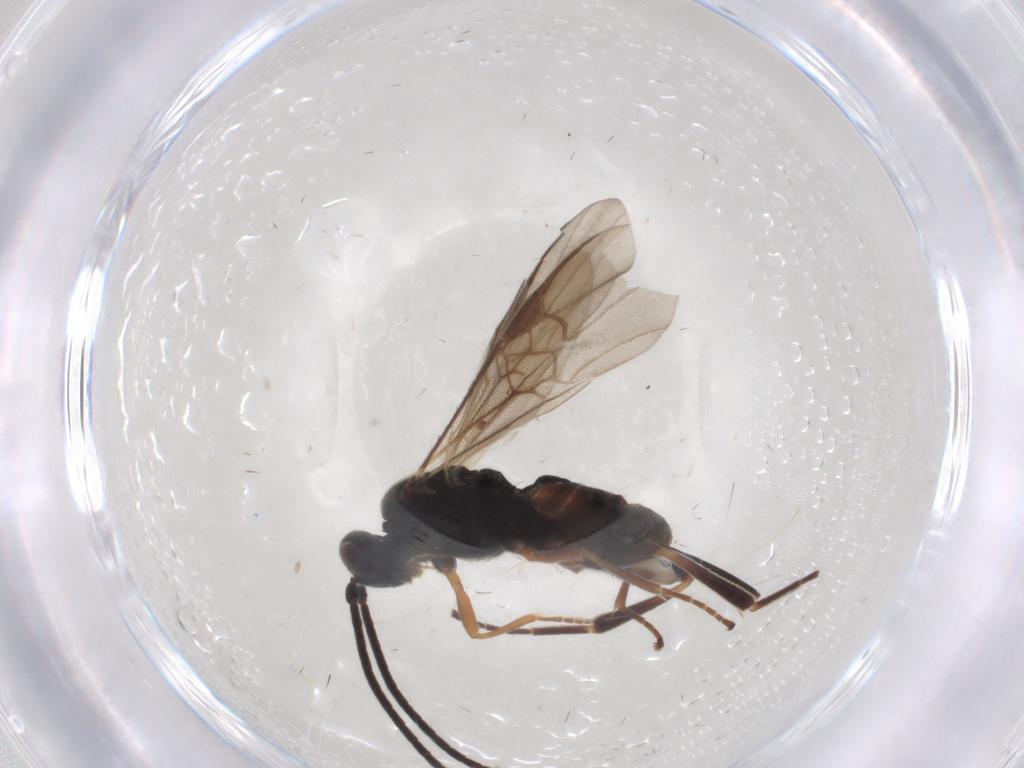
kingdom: Animalia
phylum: Arthropoda
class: Insecta
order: Hymenoptera
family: Braconidae
